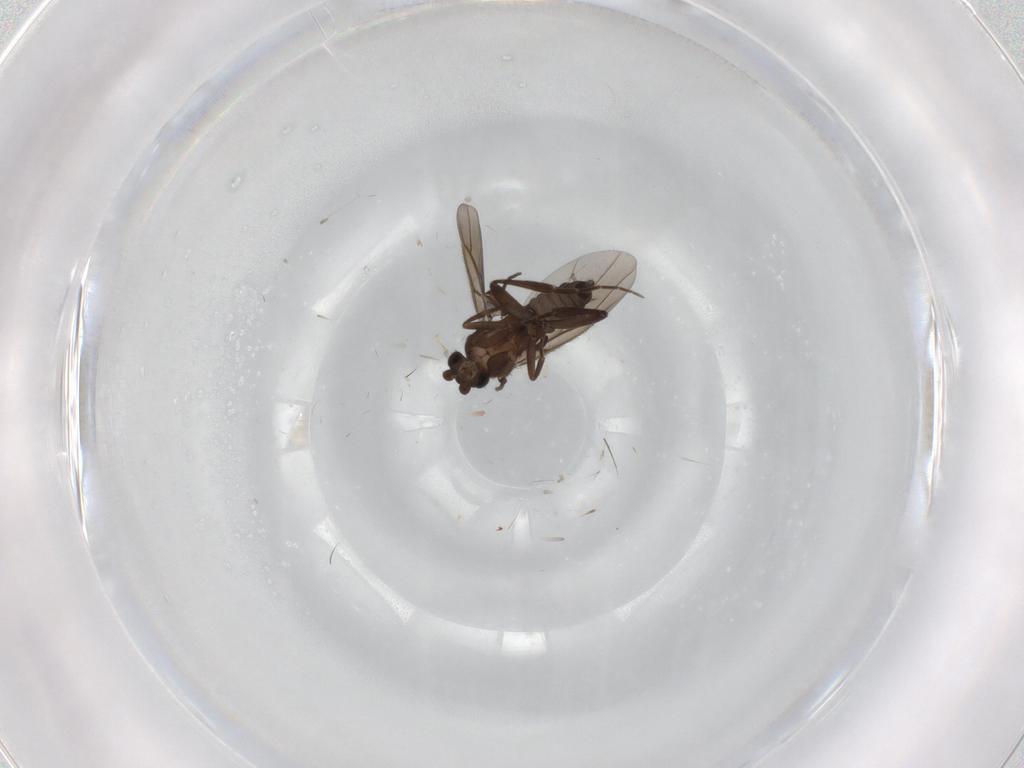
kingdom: Animalia
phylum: Arthropoda
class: Insecta
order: Diptera
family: Phoridae
